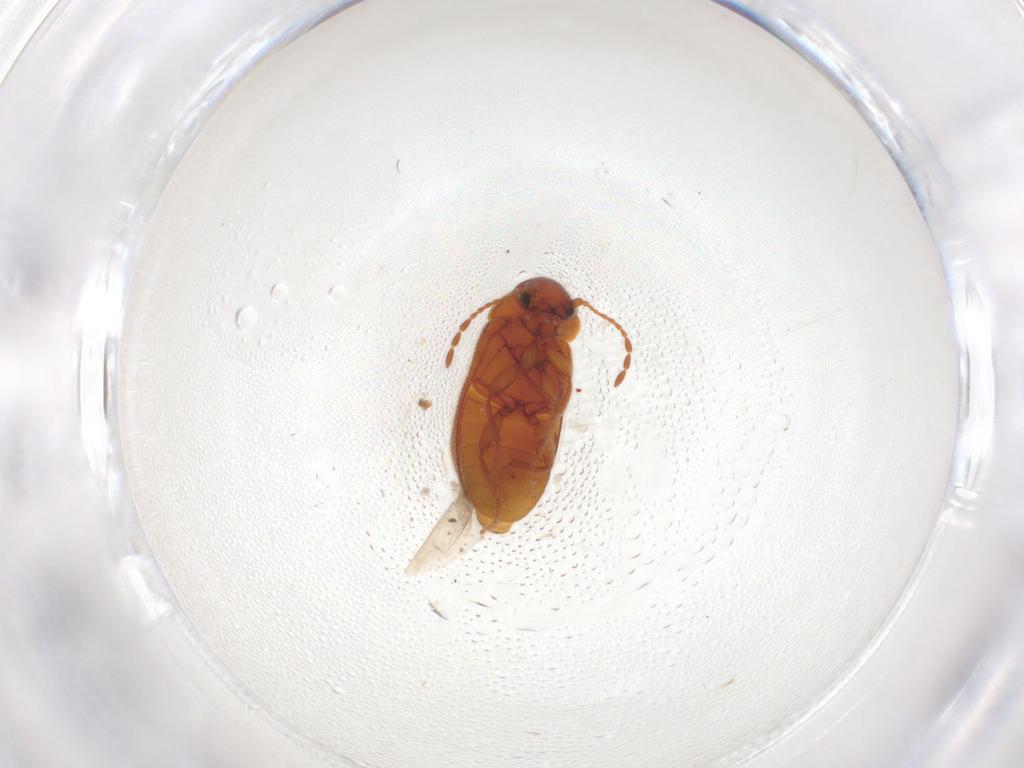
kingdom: Animalia
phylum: Arthropoda
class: Insecta
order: Coleoptera
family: Ptinidae
